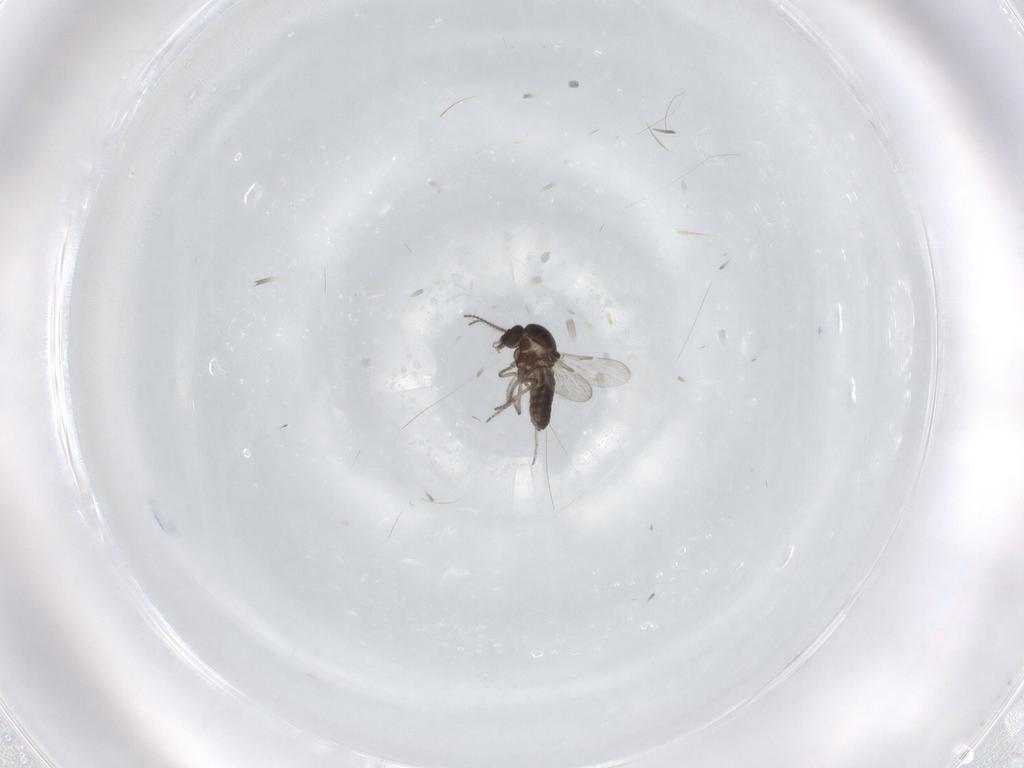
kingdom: Animalia
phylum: Arthropoda
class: Insecta
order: Diptera
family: Ceratopogonidae
